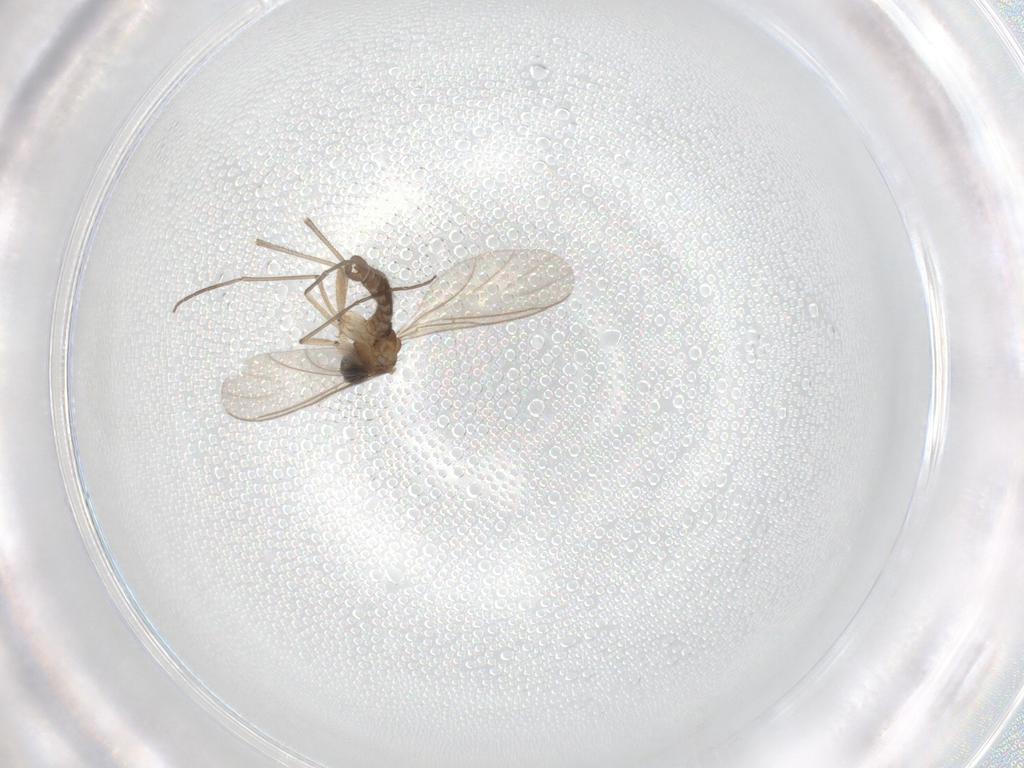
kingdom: Animalia
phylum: Arthropoda
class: Insecta
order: Diptera
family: Sciaridae
